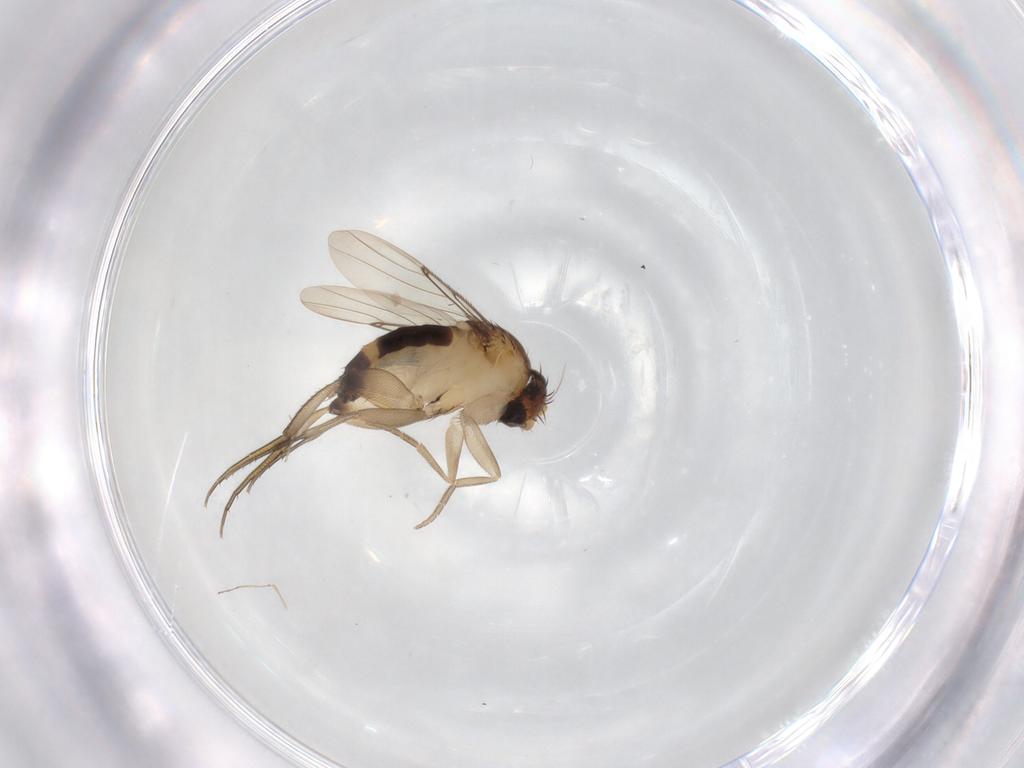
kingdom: Animalia
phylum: Arthropoda
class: Insecta
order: Diptera
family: Chironomidae
